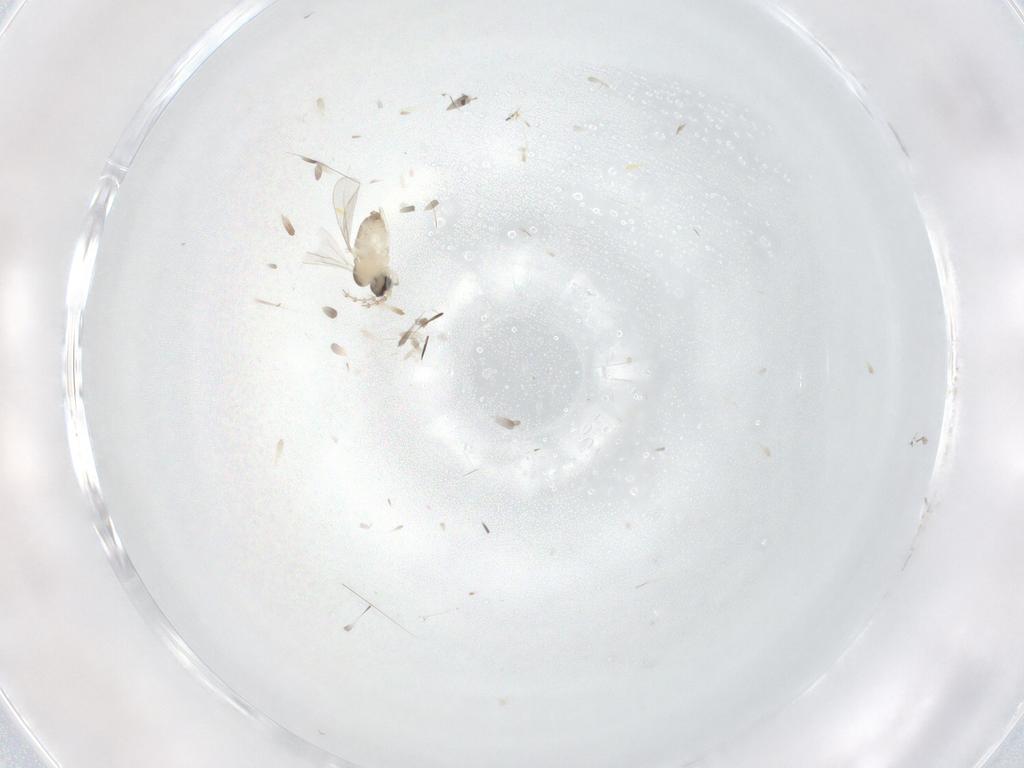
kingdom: Animalia
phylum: Arthropoda
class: Insecta
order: Diptera
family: Cecidomyiidae
